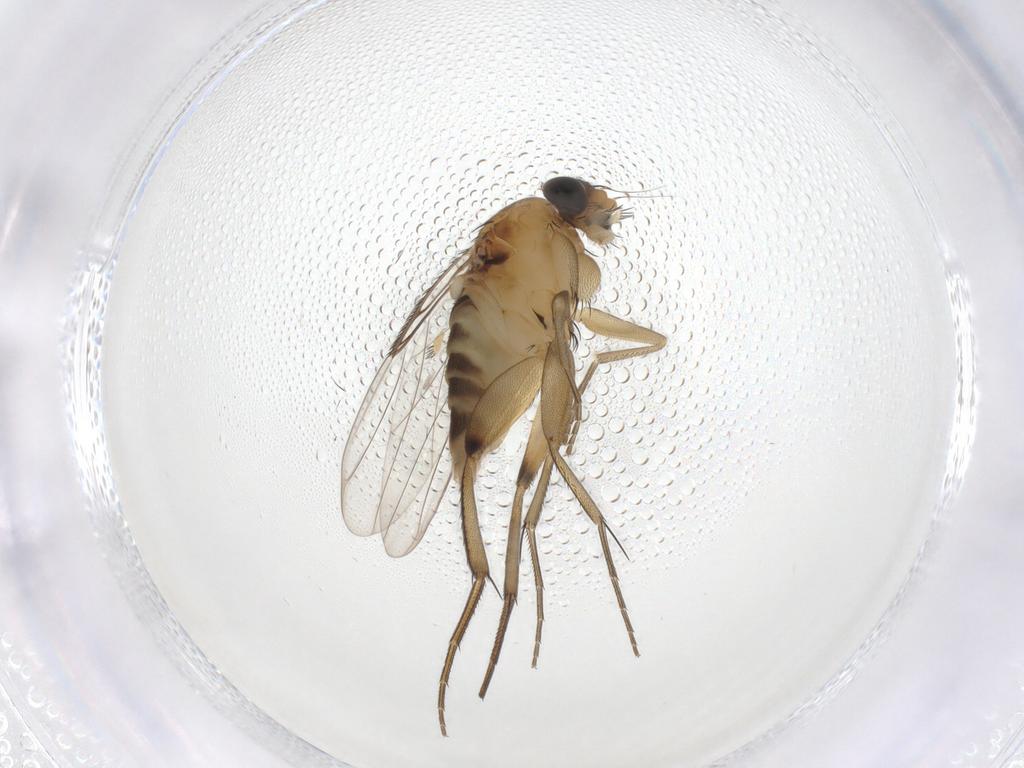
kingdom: Animalia
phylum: Arthropoda
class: Insecta
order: Diptera
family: Phoridae
